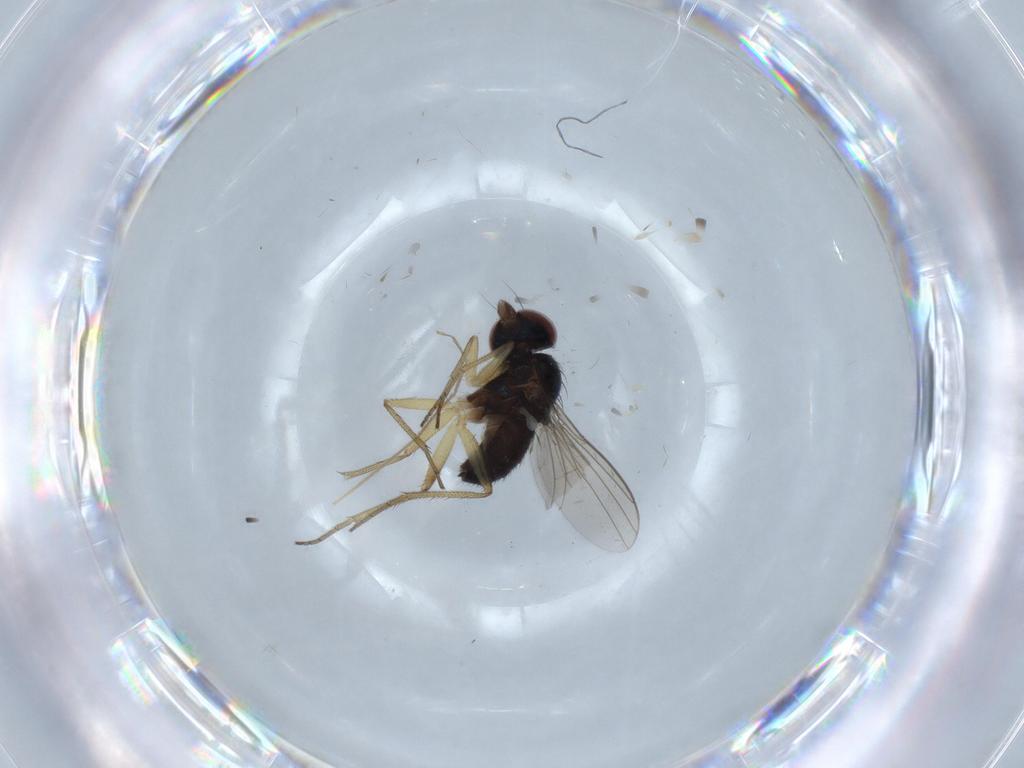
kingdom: Animalia
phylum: Arthropoda
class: Insecta
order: Diptera
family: Dolichopodidae
